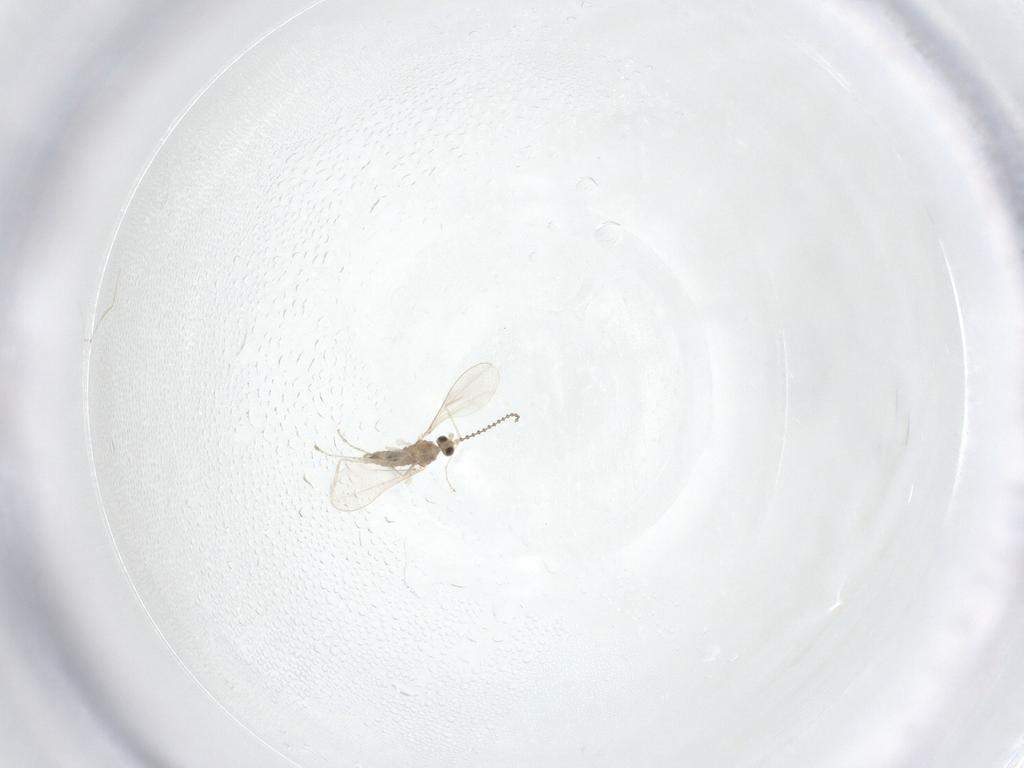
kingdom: Animalia
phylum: Arthropoda
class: Insecta
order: Diptera
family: Cecidomyiidae
